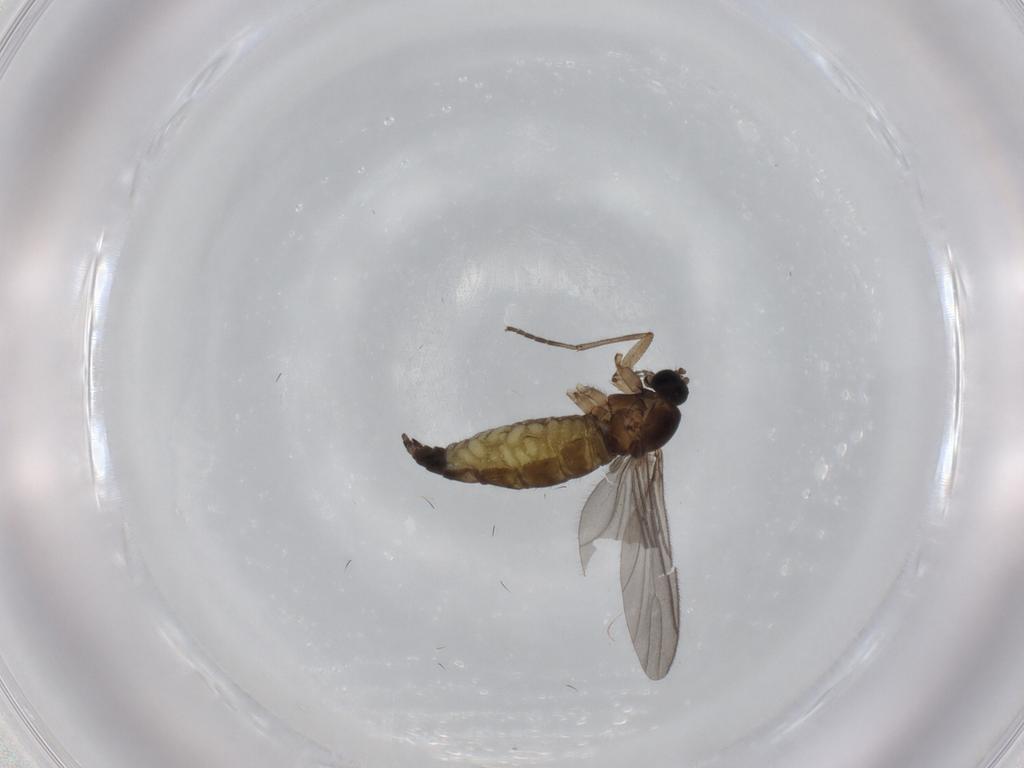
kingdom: Animalia
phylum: Arthropoda
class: Insecta
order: Diptera
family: Sciaridae
